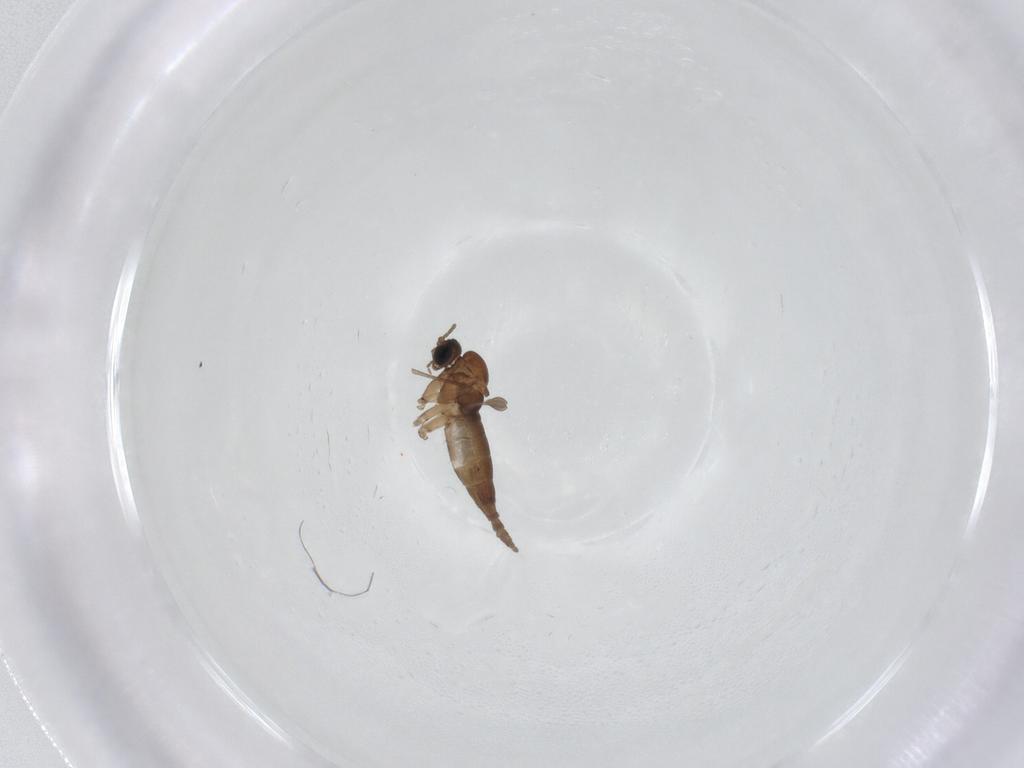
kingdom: Animalia
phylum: Arthropoda
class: Insecta
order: Diptera
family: Sciaridae
